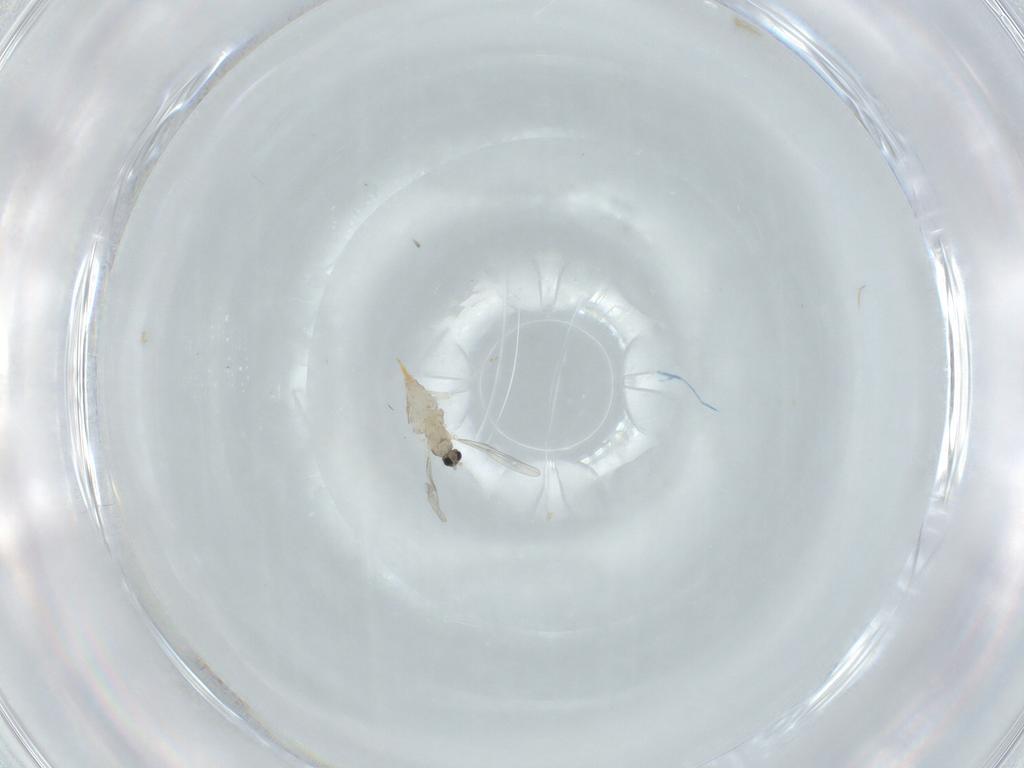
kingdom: Animalia
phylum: Arthropoda
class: Insecta
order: Diptera
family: Cecidomyiidae
